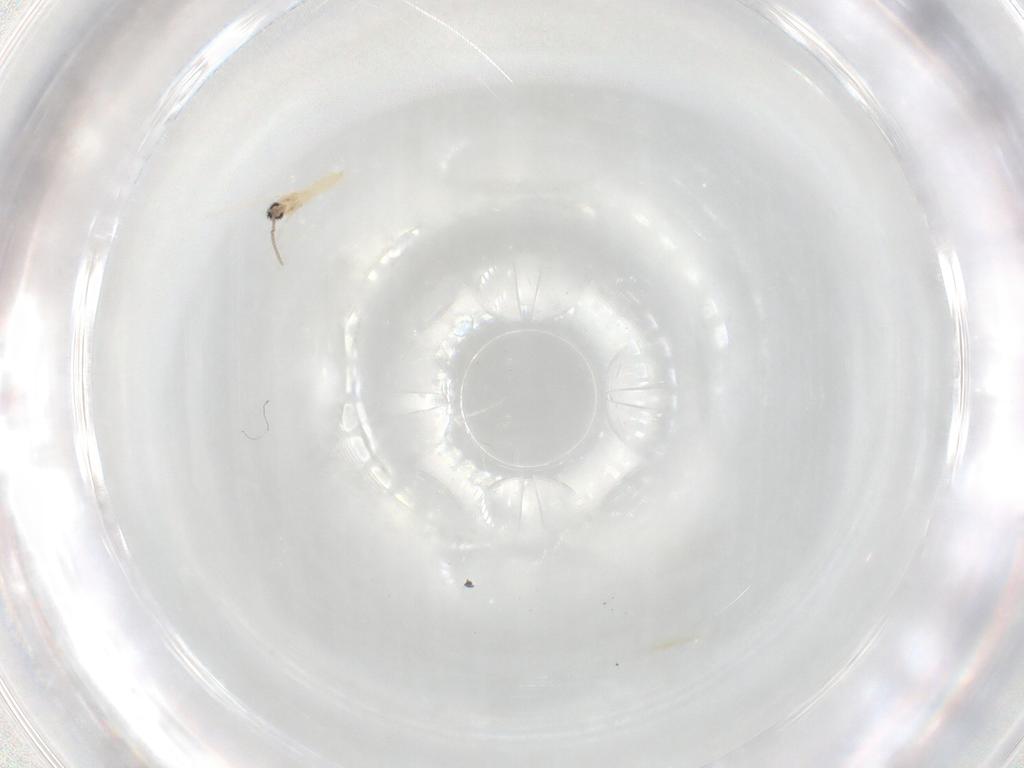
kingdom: Animalia
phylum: Arthropoda
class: Insecta
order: Diptera
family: Cecidomyiidae
